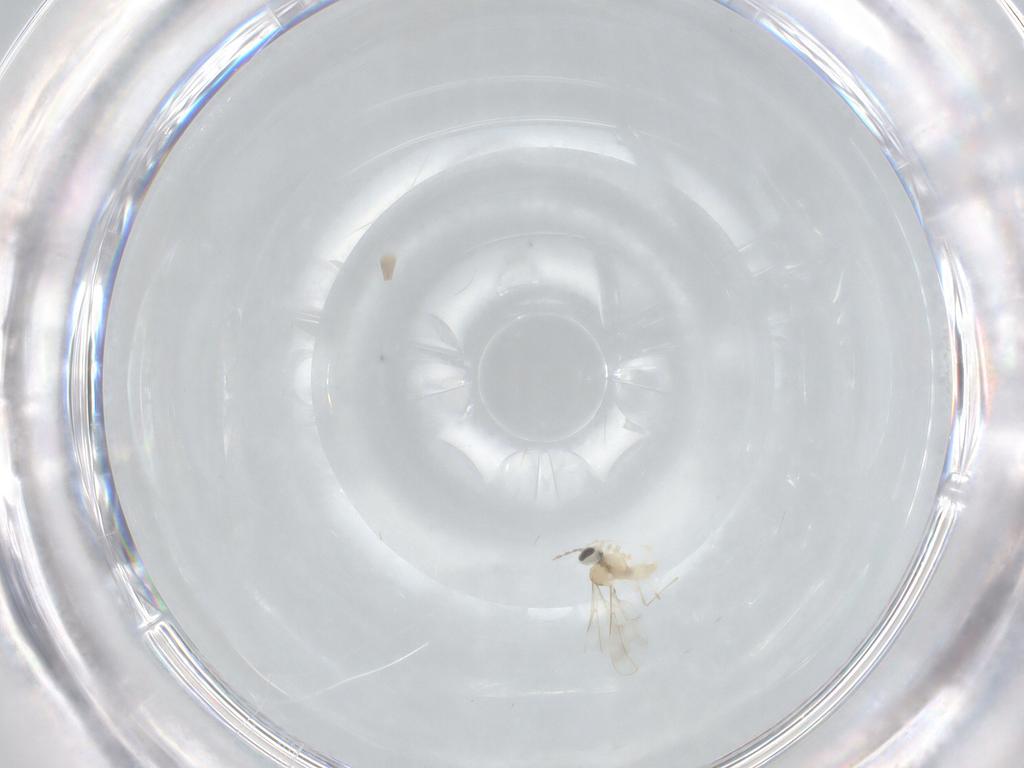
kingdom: Animalia
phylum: Arthropoda
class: Insecta
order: Diptera
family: Cecidomyiidae
